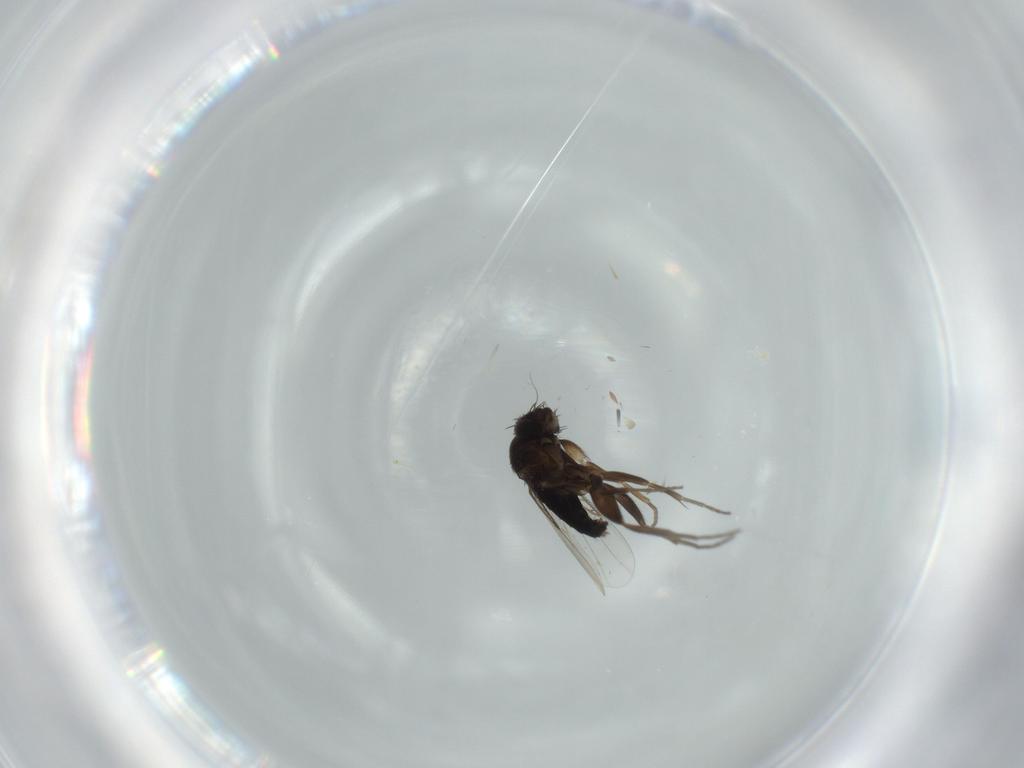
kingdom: Animalia
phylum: Arthropoda
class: Insecta
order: Diptera
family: Phoridae
